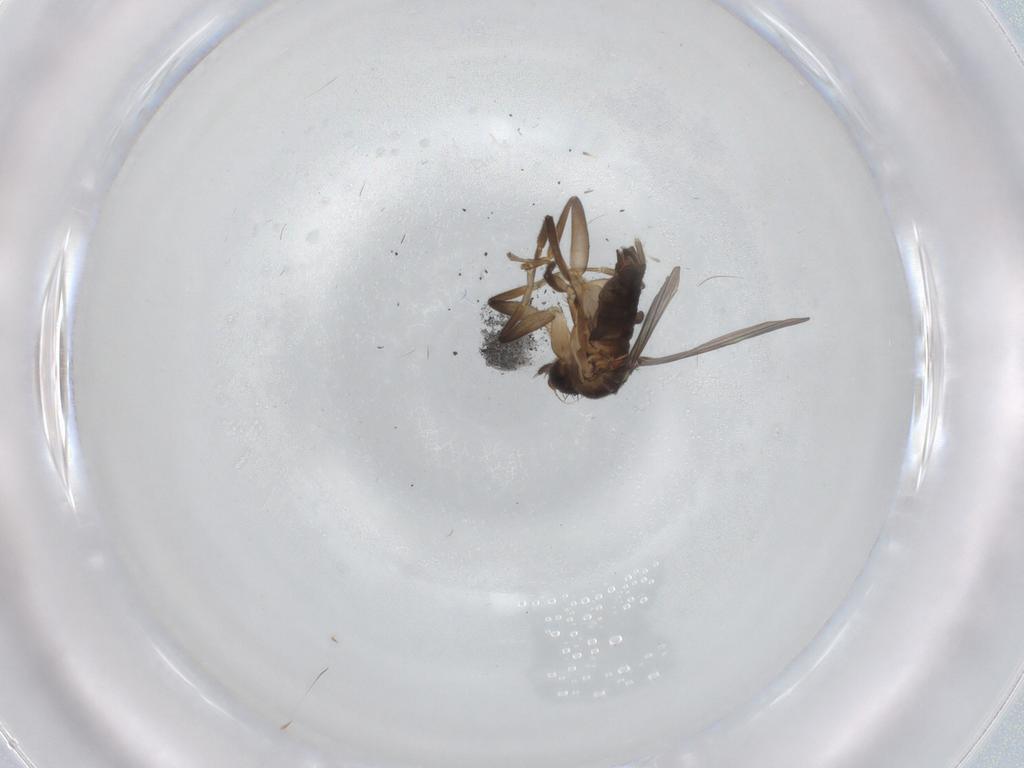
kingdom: Animalia
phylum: Arthropoda
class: Insecta
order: Diptera
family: Phoridae
